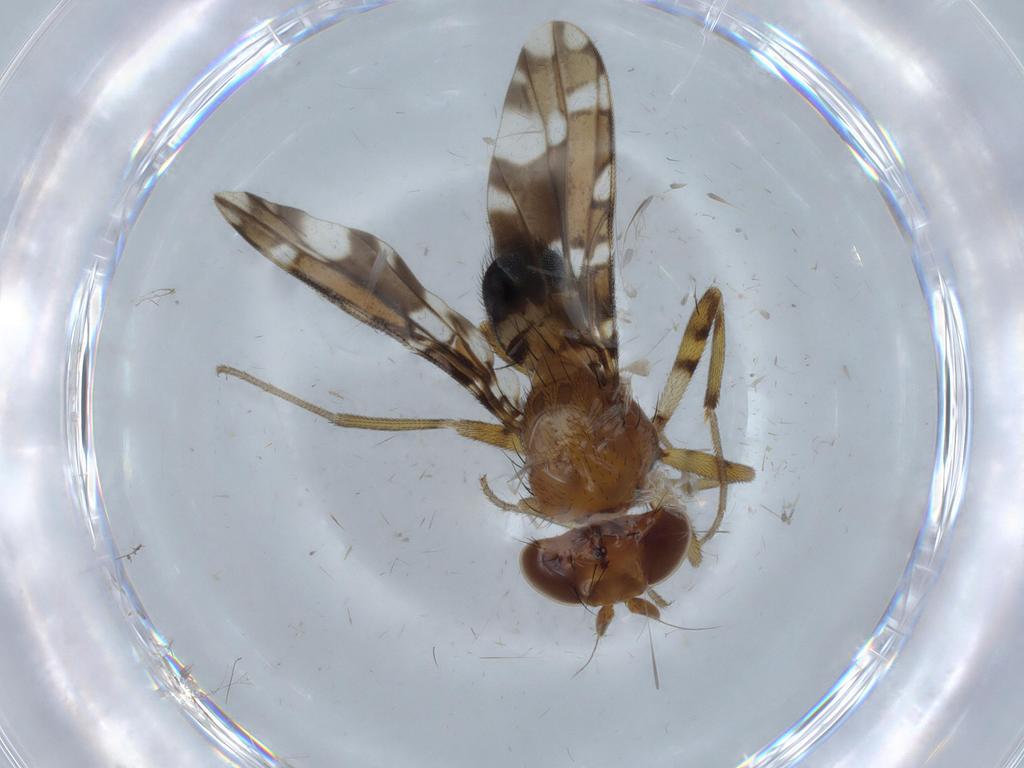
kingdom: Animalia
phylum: Arthropoda
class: Insecta
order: Diptera
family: Ulidiidae
